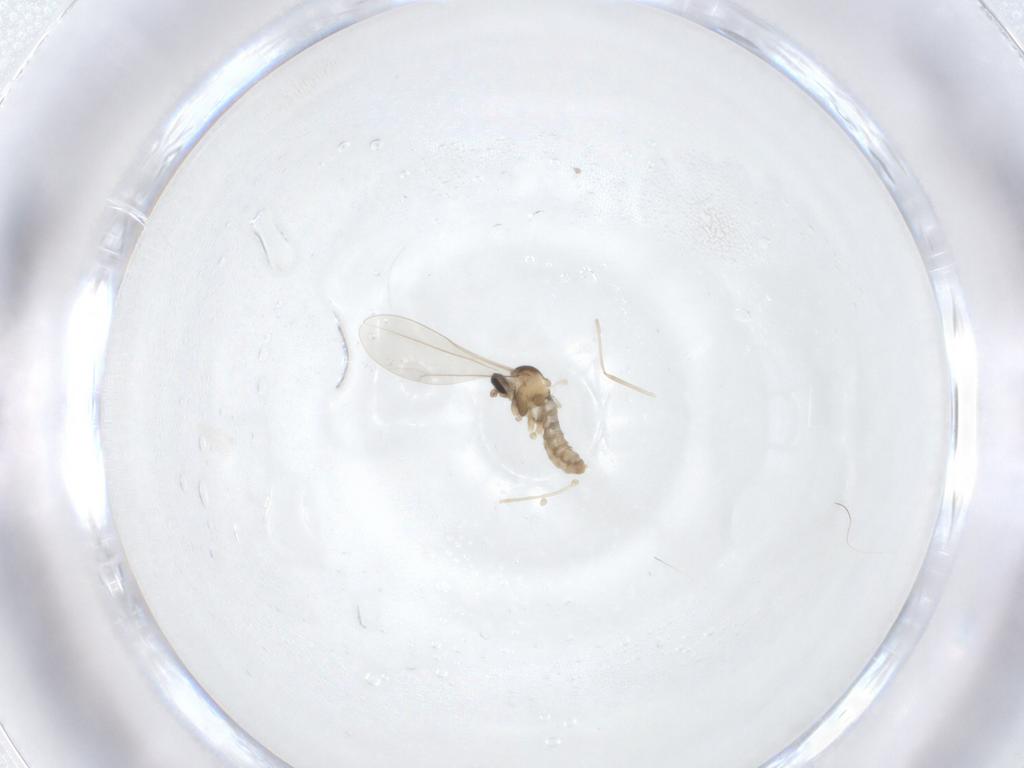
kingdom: Animalia
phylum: Arthropoda
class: Insecta
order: Diptera
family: Cecidomyiidae
